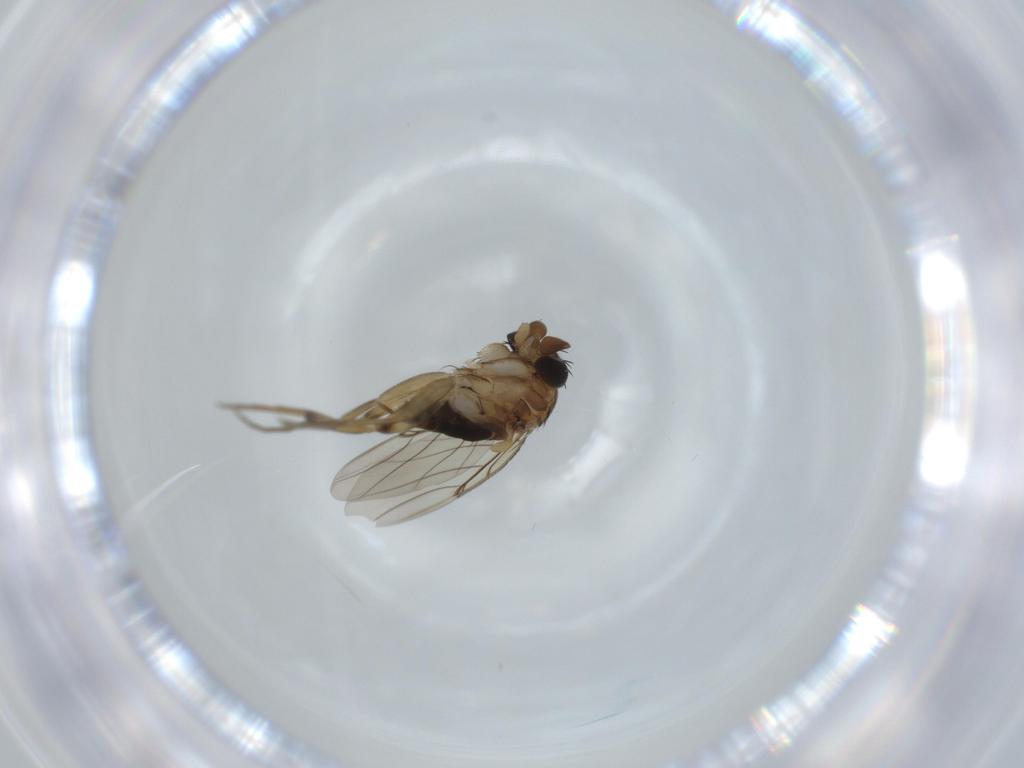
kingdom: Animalia
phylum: Arthropoda
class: Insecta
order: Diptera
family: Phoridae
